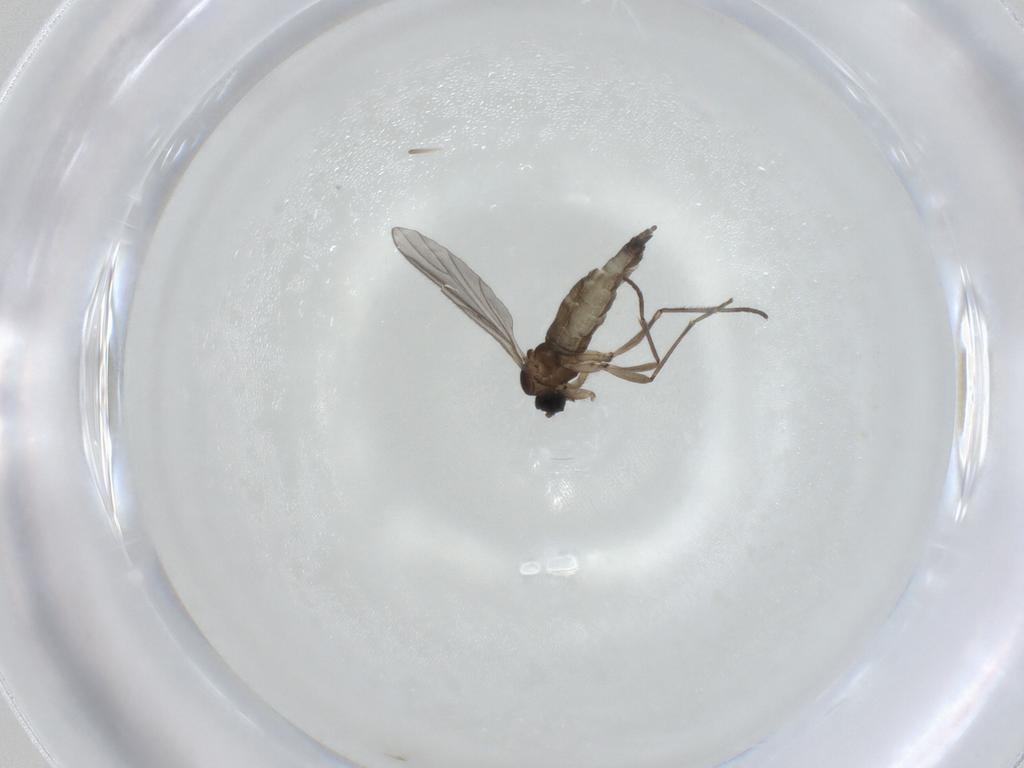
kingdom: Animalia
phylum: Arthropoda
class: Insecta
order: Diptera
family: Sciaridae
